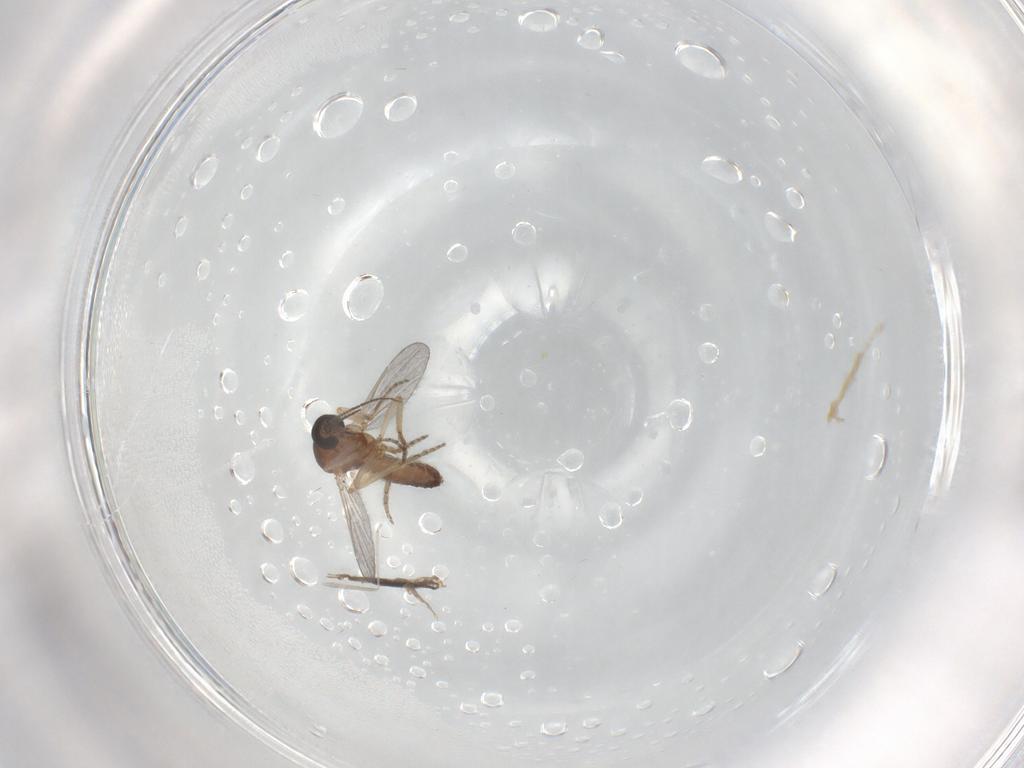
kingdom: Animalia
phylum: Arthropoda
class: Insecta
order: Diptera
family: Ceratopogonidae
